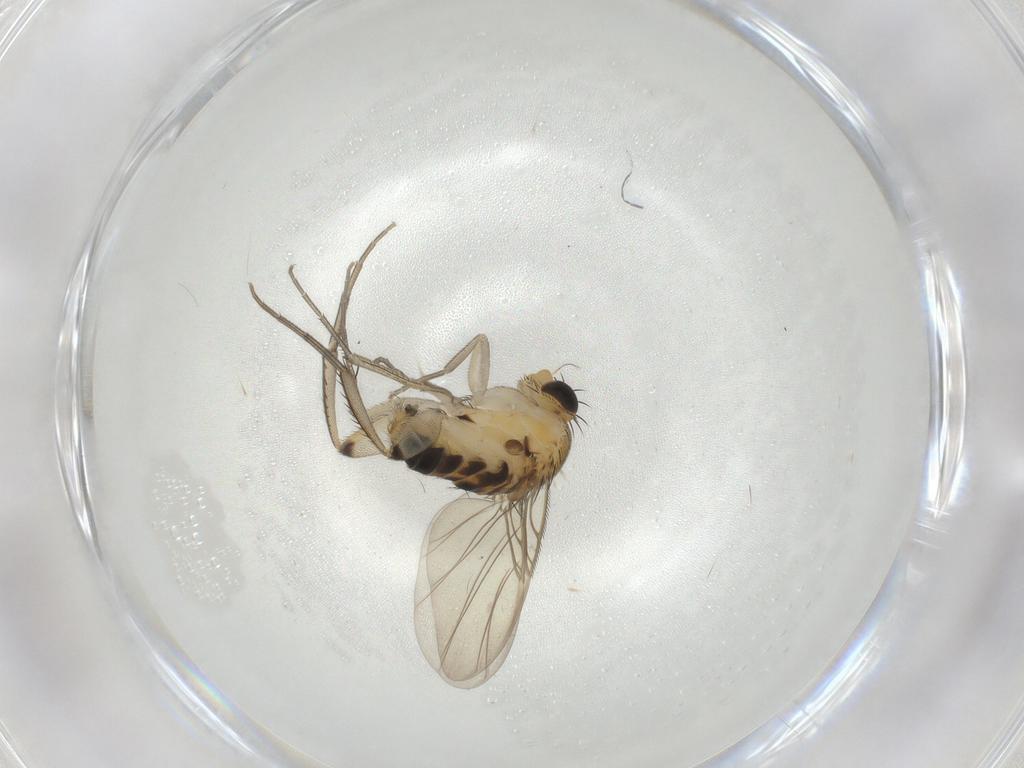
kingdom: Animalia
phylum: Arthropoda
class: Insecta
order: Diptera
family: Phoridae
